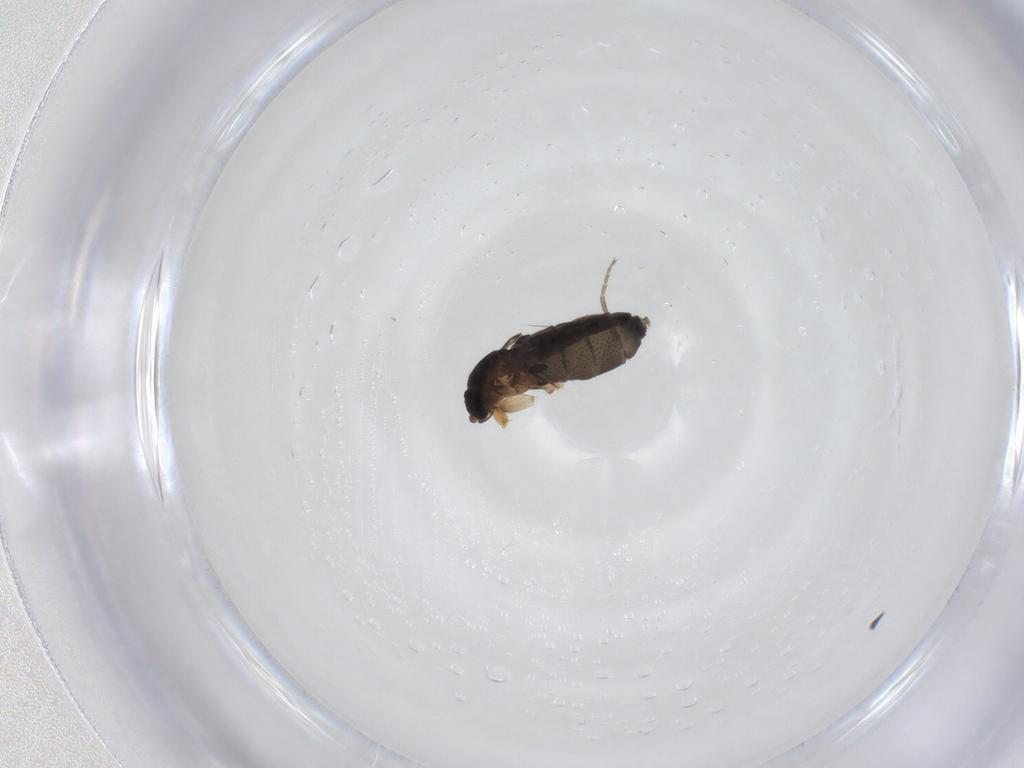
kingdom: Animalia
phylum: Arthropoda
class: Insecta
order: Diptera
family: Phoridae
